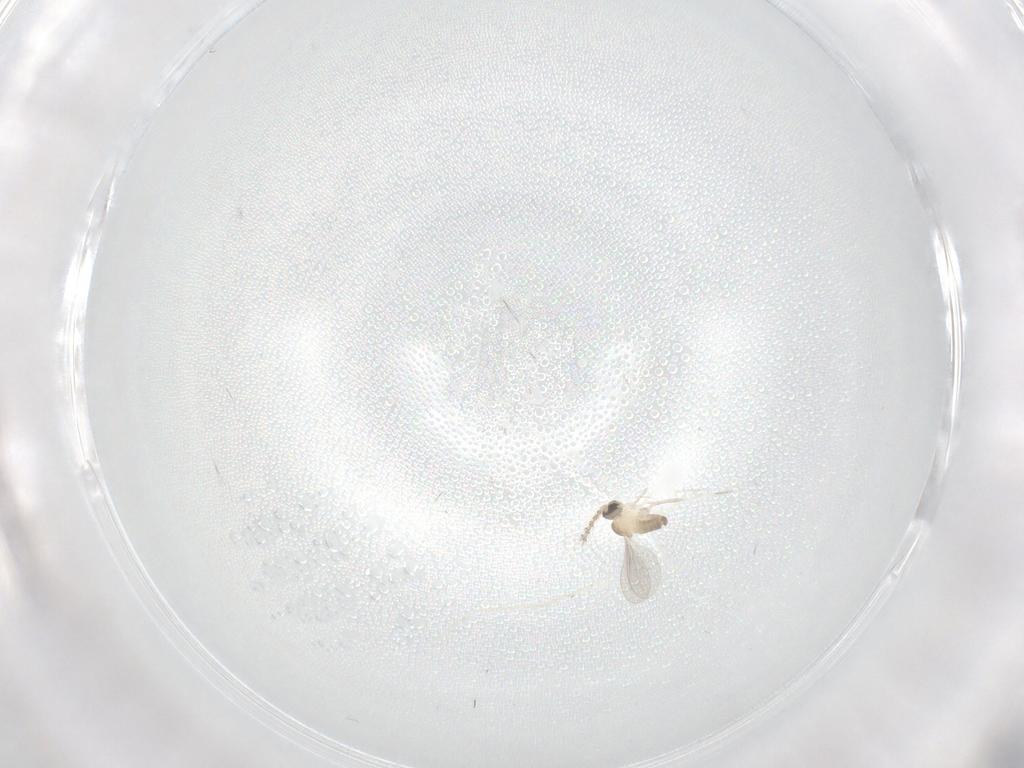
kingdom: Animalia
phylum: Arthropoda
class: Insecta
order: Diptera
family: Cecidomyiidae
